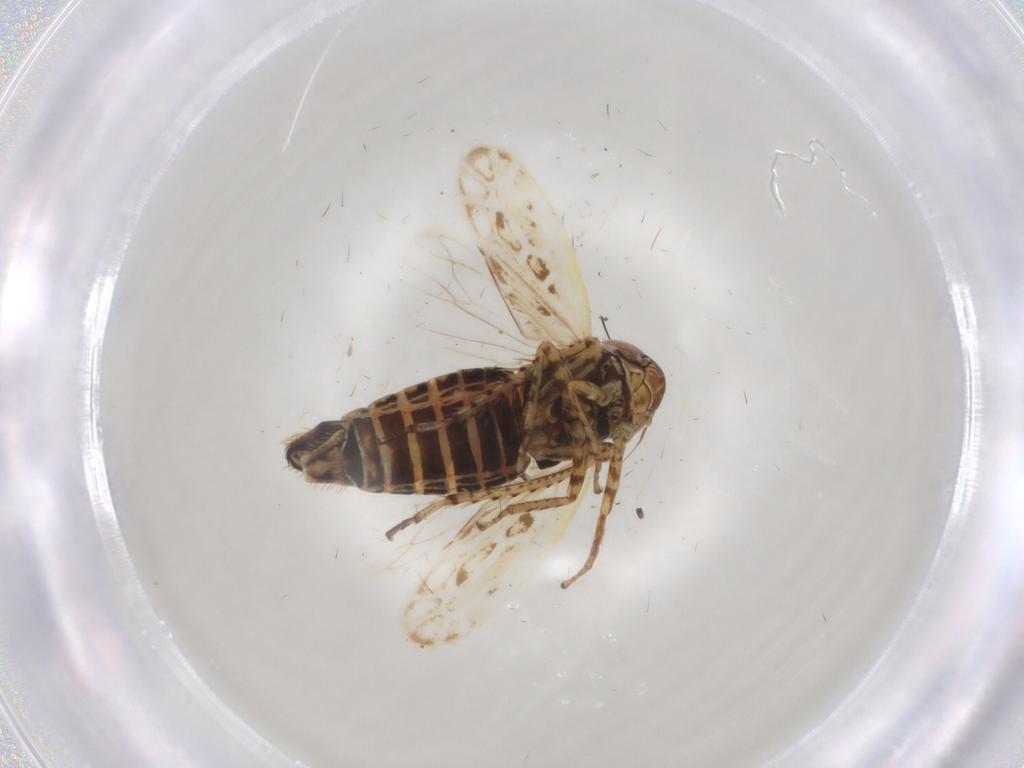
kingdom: Animalia
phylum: Arthropoda
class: Insecta
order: Hemiptera
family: Cicadellidae
